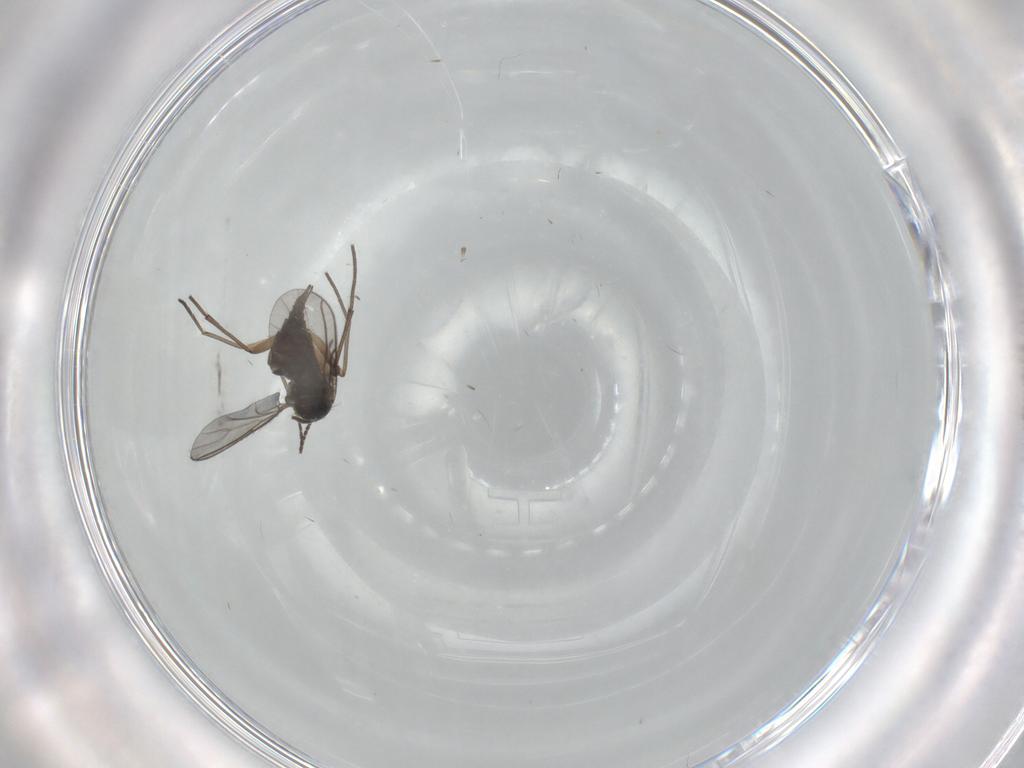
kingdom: Animalia
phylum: Arthropoda
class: Insecta
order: Diptera
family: Sciaridae
